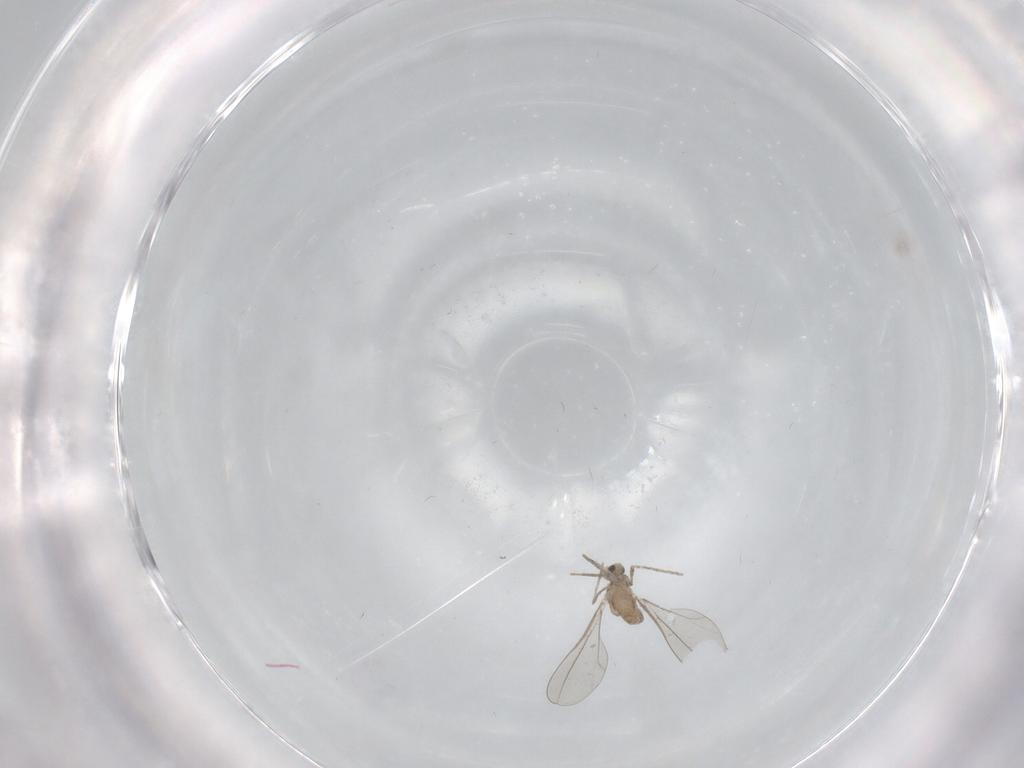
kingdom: Animalia
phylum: Arthropoda
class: Insecta
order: Diptera
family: Cecidomyiidae
